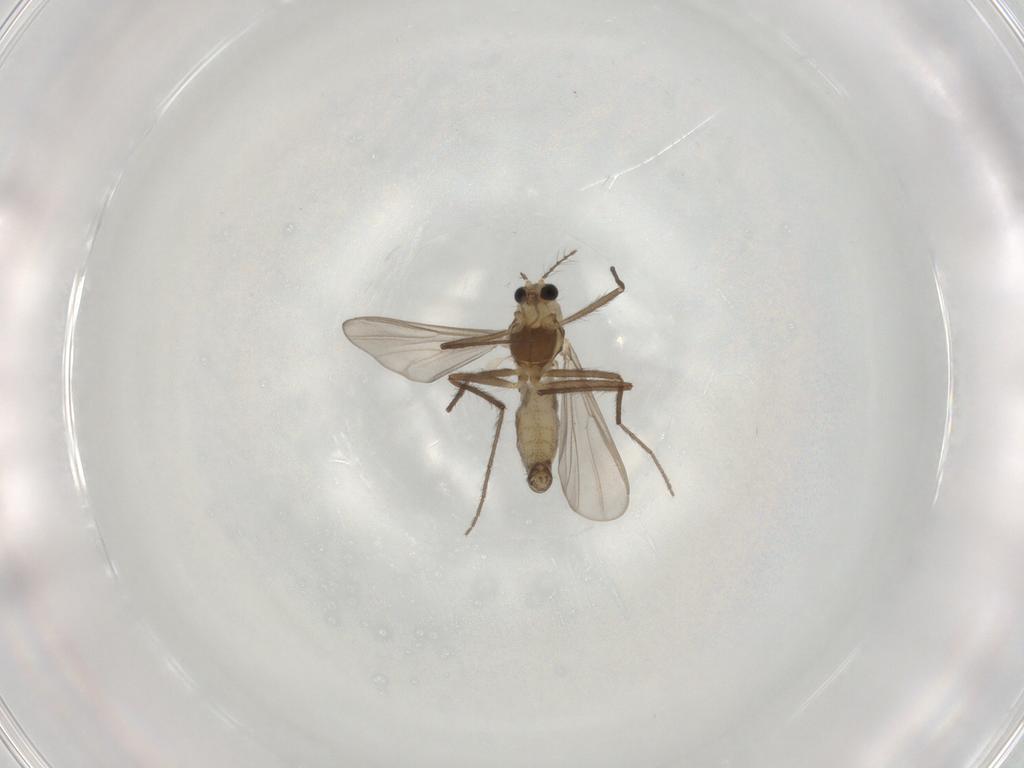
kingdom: Animalia
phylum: Arthropoda
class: Insecta
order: Diptera
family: Chironomidae
